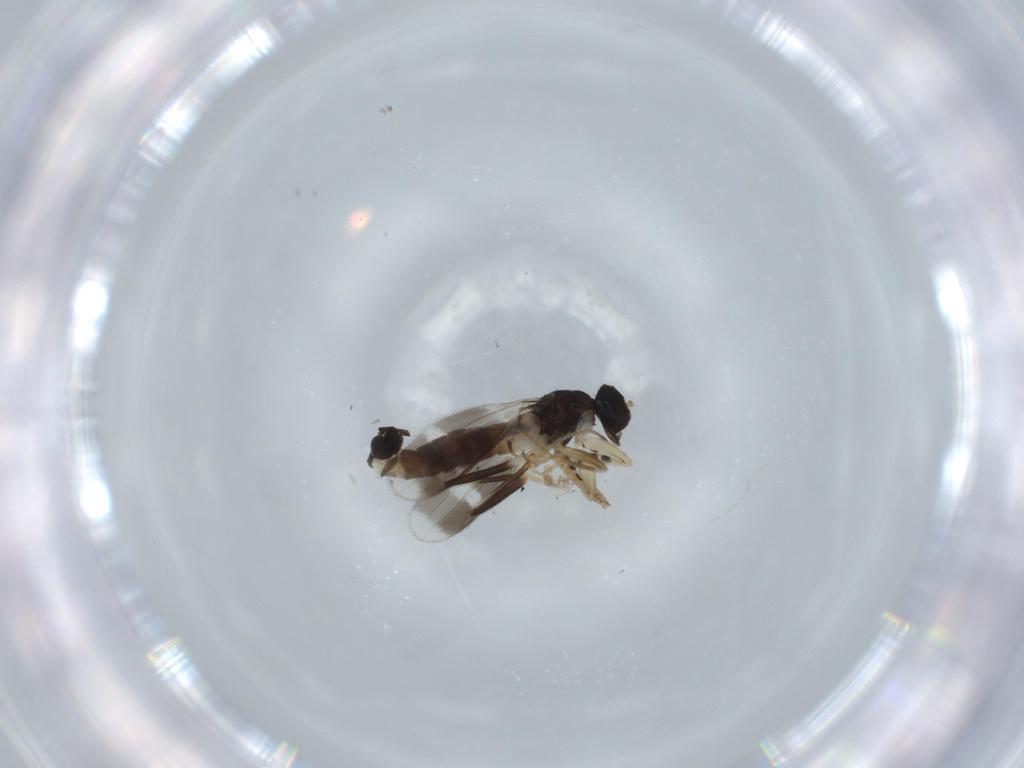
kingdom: Animalia
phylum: Arthropoda
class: Insecta
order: Diptera
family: Hybotidae
